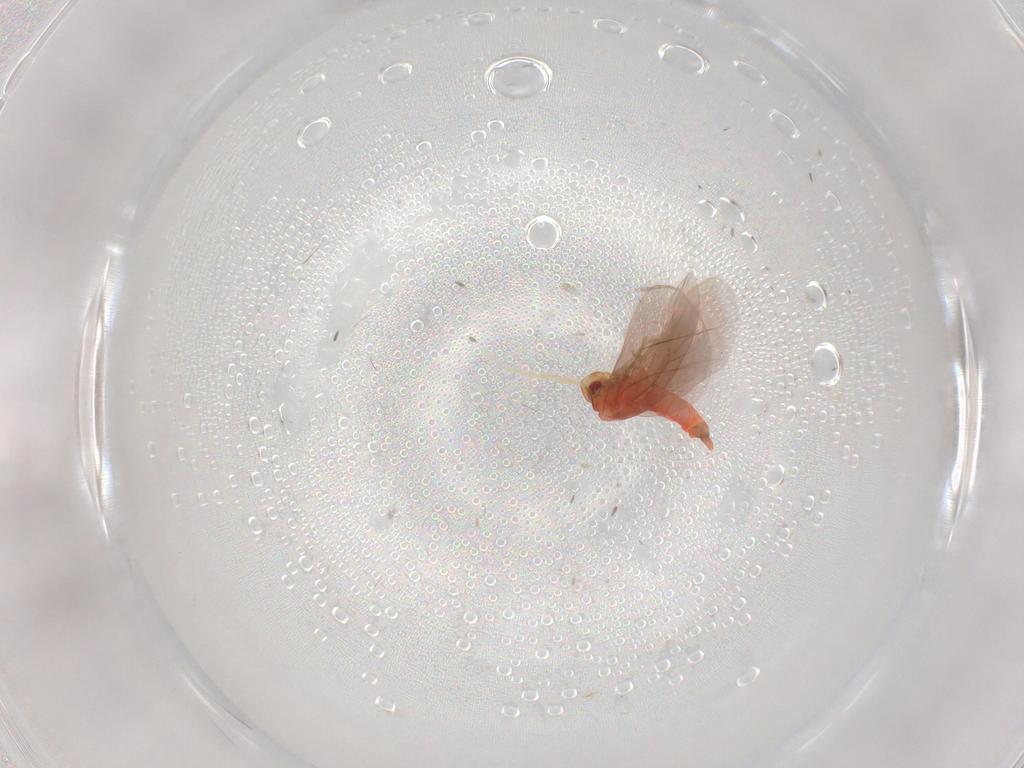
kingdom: Animalia
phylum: Arthropoda
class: Insecta
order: Hemiptera
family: Aleyrodidae
